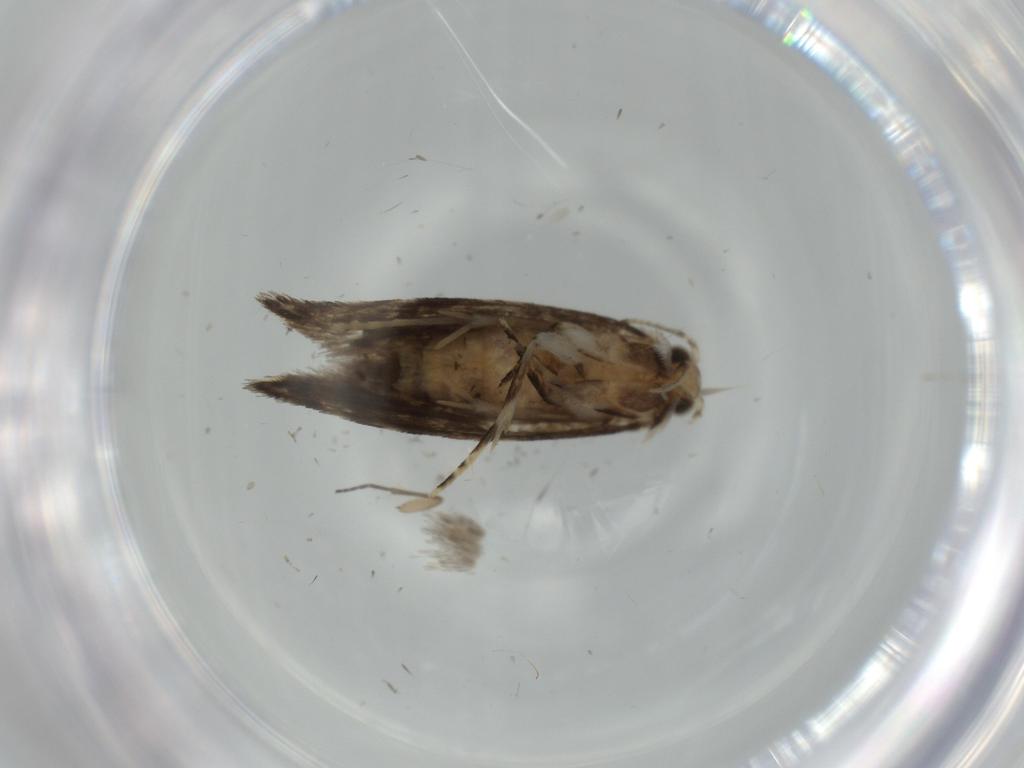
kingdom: Animalia
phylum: Arthropoda
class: Insecta
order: Lepidoptera
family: Tineidae
